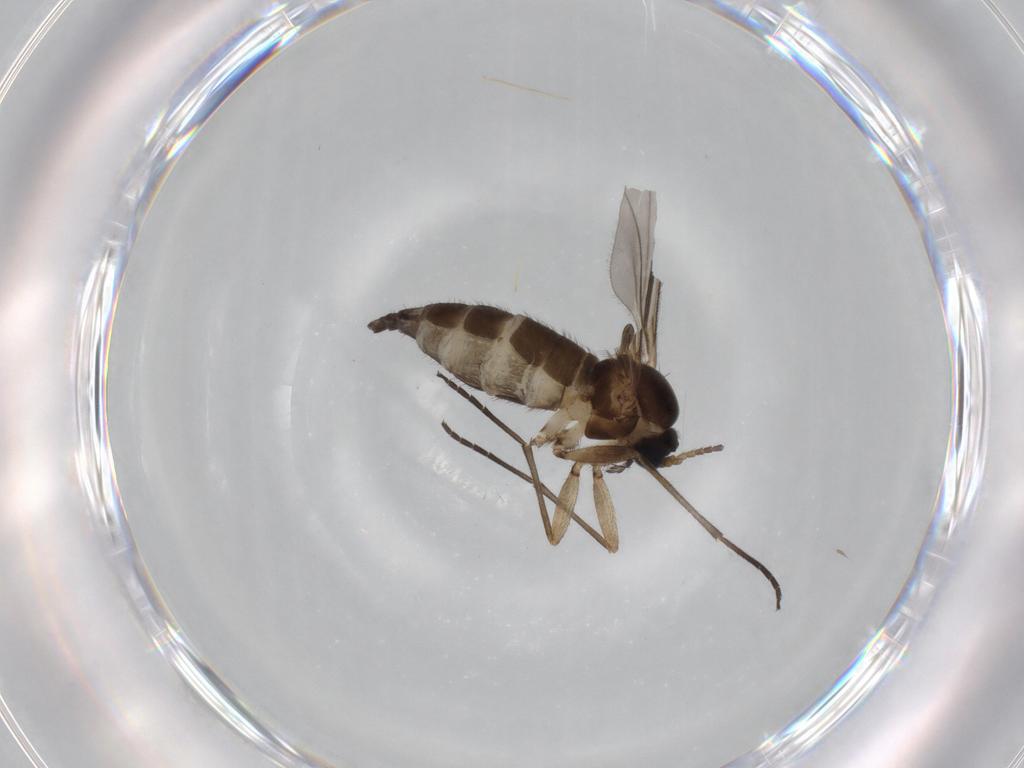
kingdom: Animalia
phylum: Arthropoda
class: Insecta
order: Diptera
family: Sciaridae
